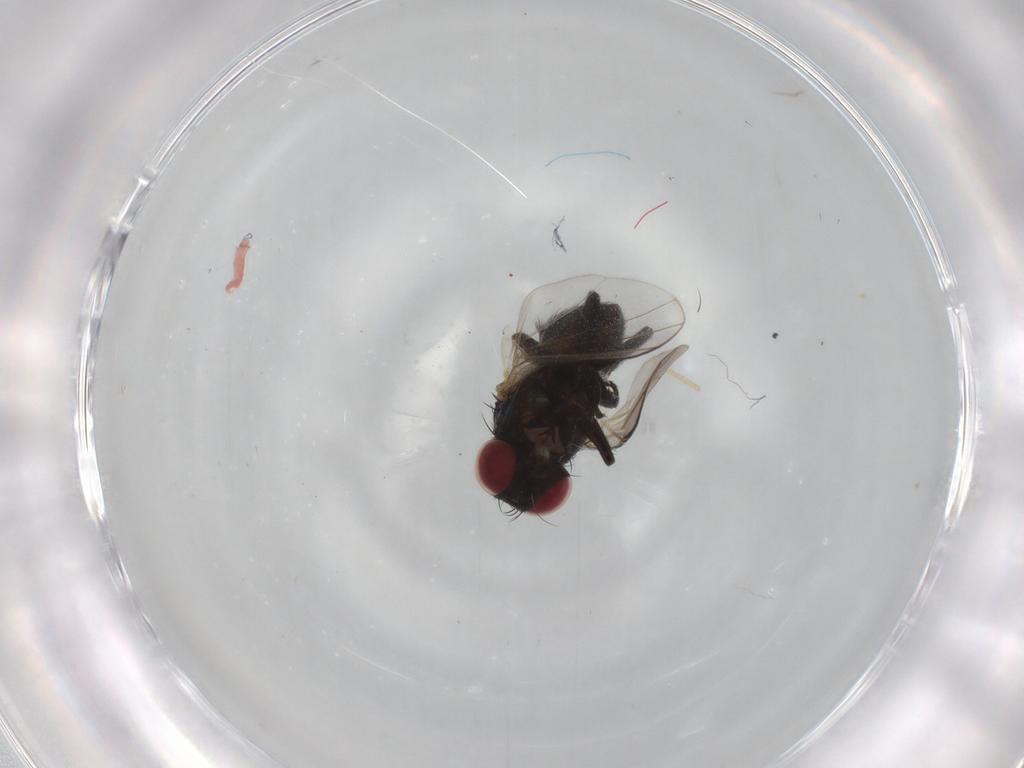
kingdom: Animalia
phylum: Arthropoda
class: Insecta
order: Diptera
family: Agromyzidae
